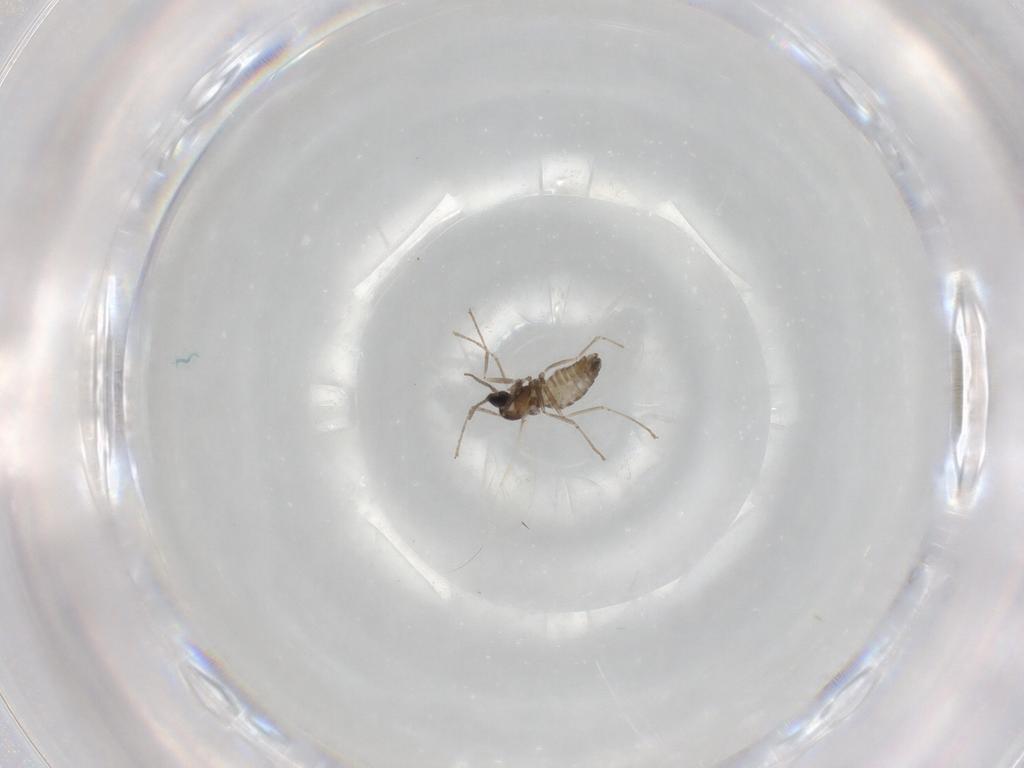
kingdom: Animalia
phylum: Arthropoda
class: Insecta
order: Diptera
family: Cecidomyiidae
